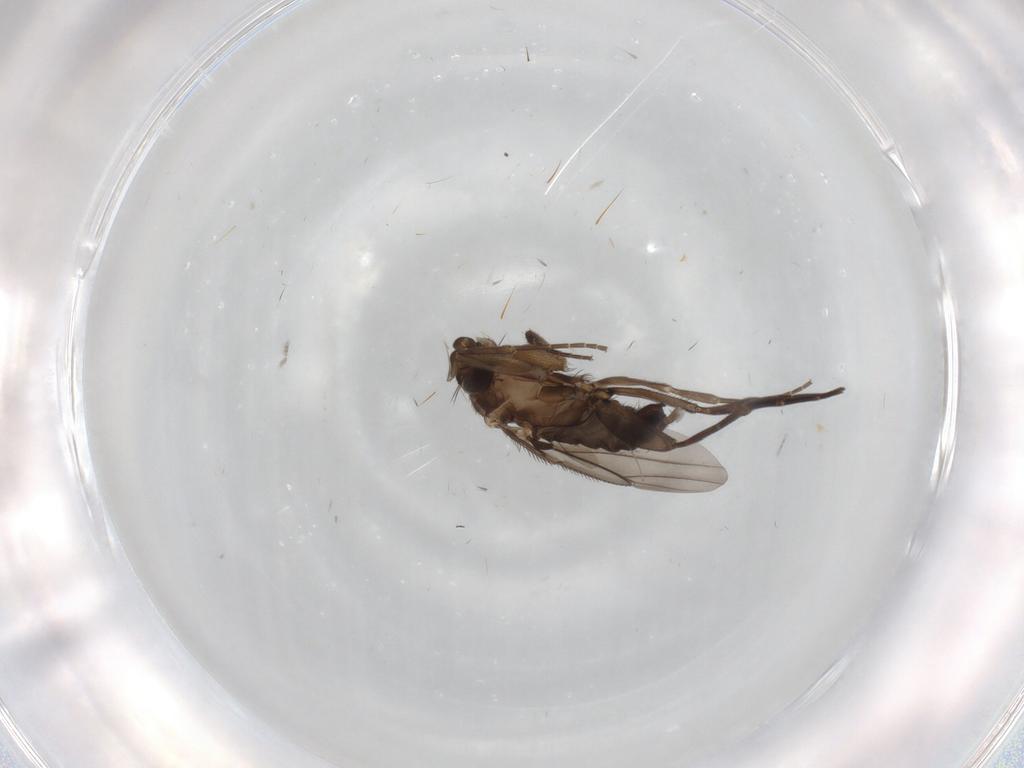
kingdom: Animalia
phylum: Arthropoda
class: Insecta
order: Diptera
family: Phoridae
